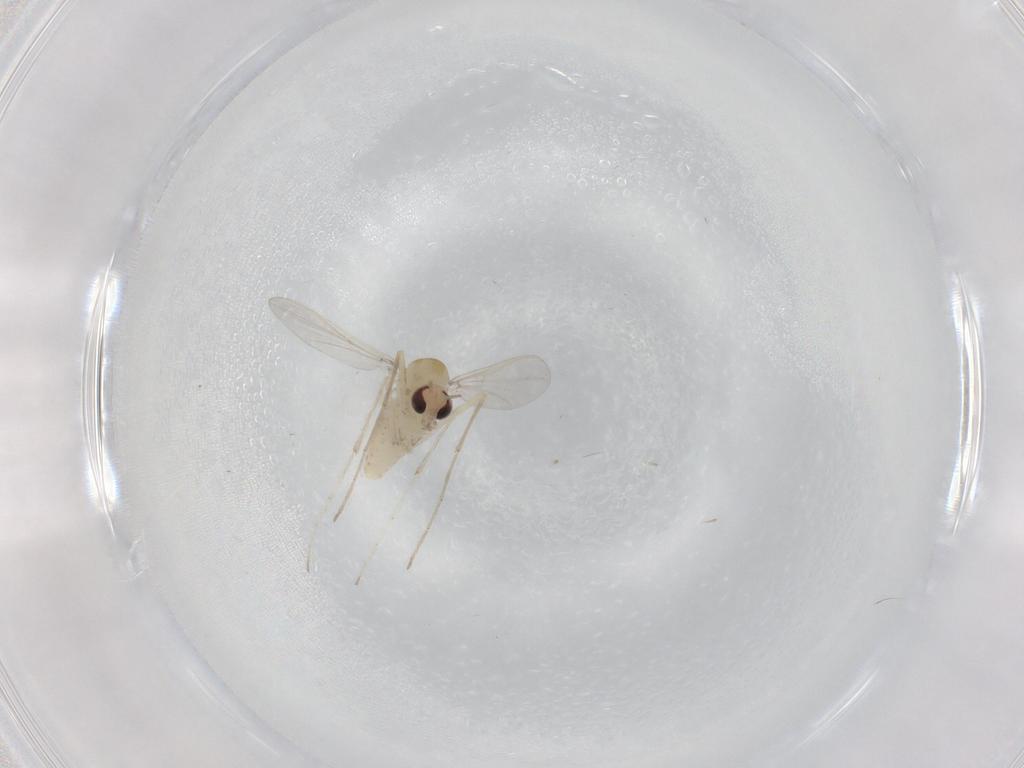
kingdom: Animalia
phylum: Arthropoda
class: Insecta
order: Diptera
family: Chironomidae
